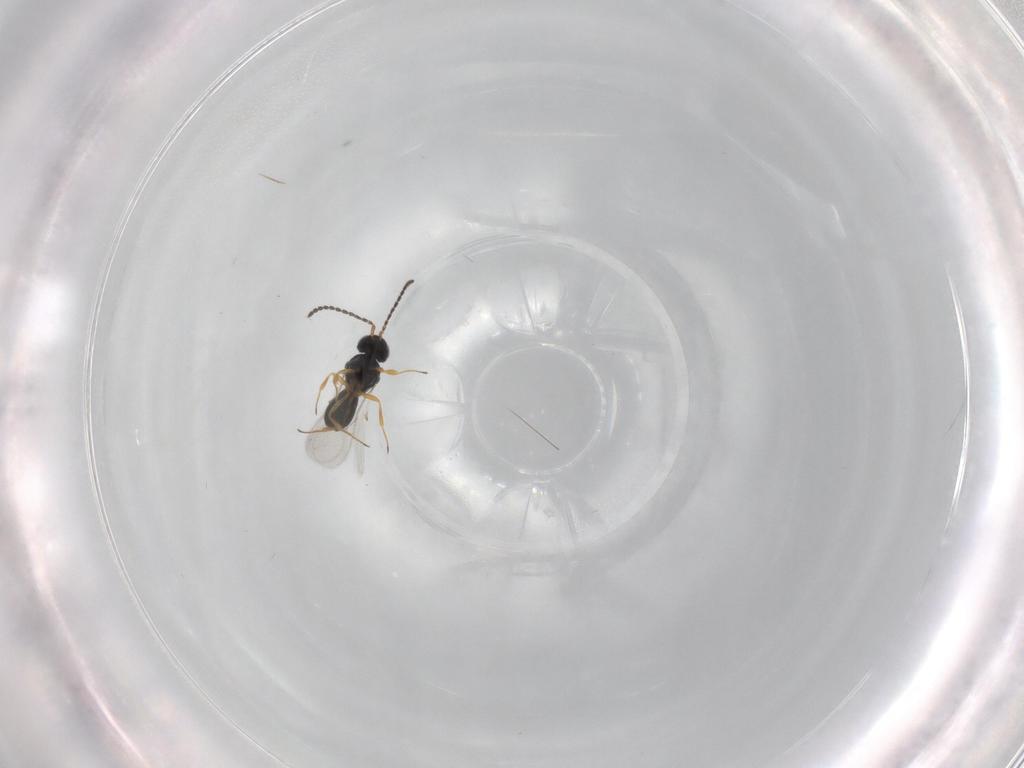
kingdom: Animalia
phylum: Arthropoda
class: Insecta
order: Hymenoptera
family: Scelionidae
